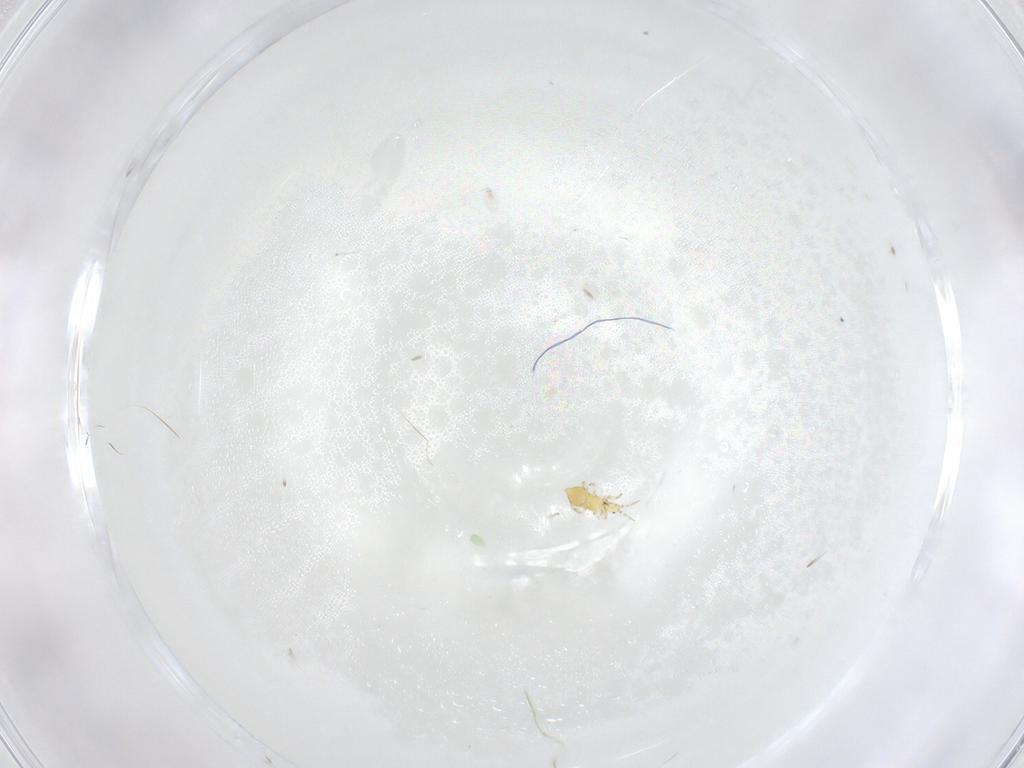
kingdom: Animalia
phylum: Arthropoda
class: Insecta
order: Thysanoptera
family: Thripidae
